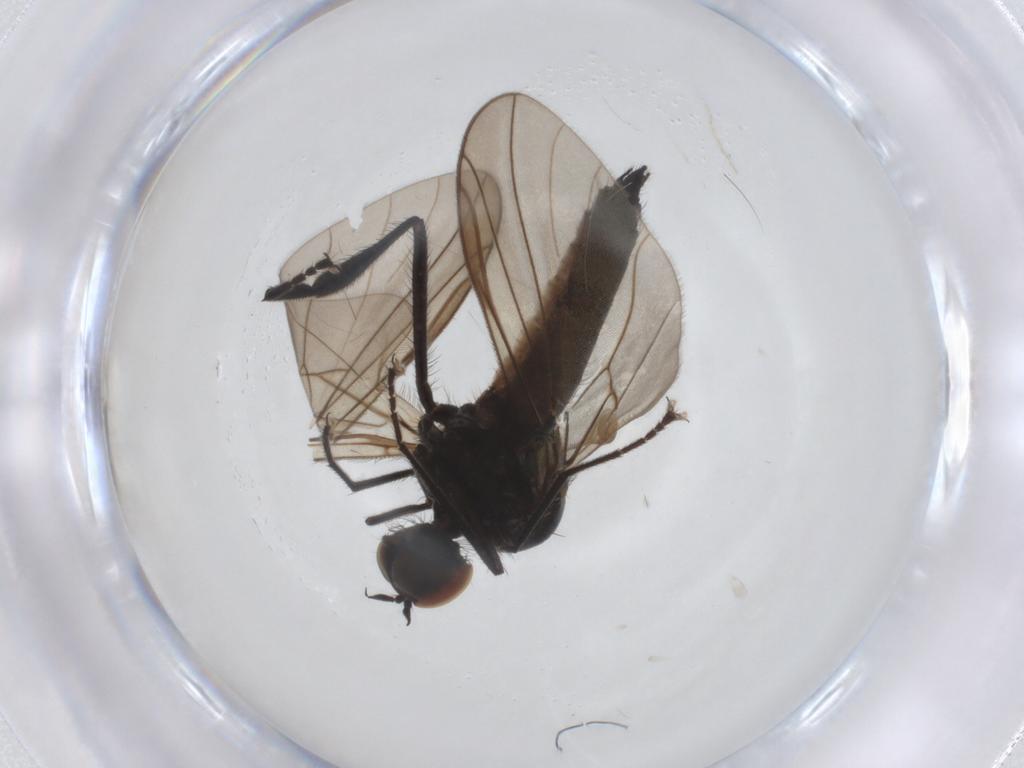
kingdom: Animalia
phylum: Arthropoda
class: Insecta
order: Diptera
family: Hybotidae
